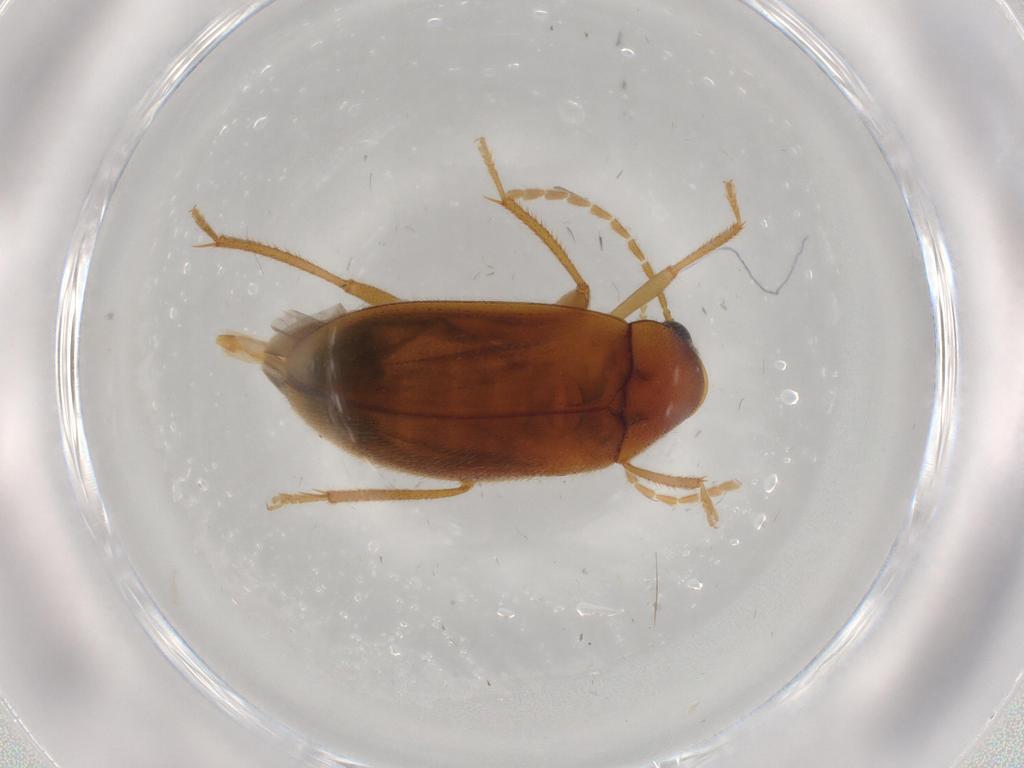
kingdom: Animalia
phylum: Arthropoda
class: Insecta
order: Coleoptera
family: Ptilodactylidae
